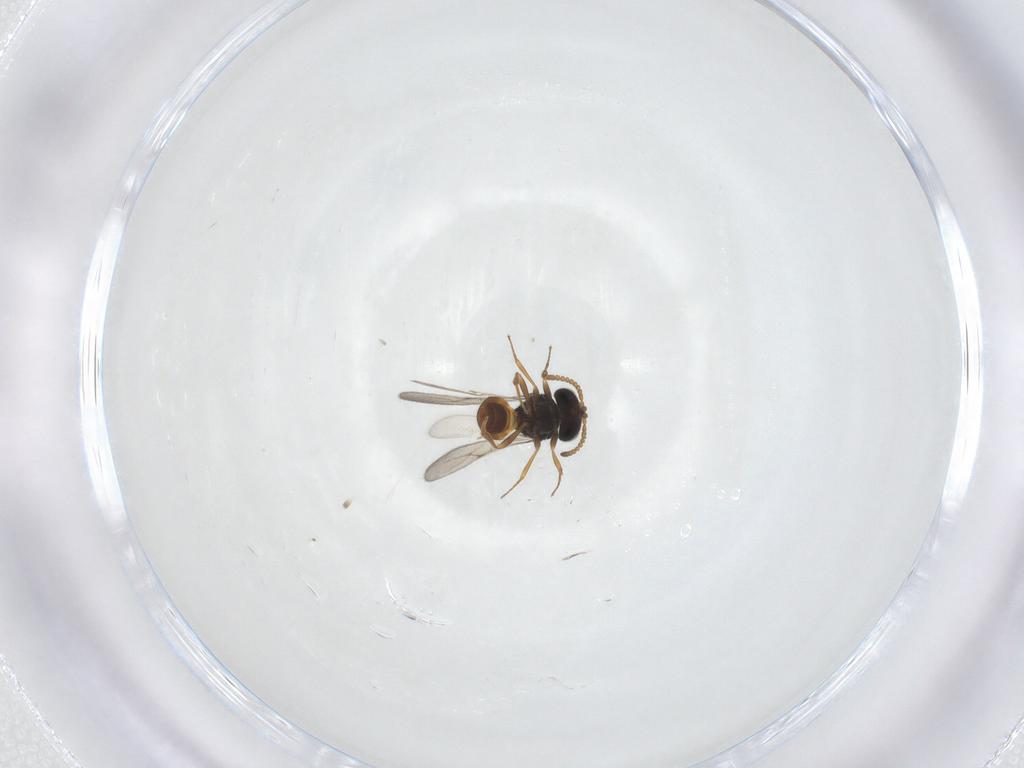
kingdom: Animalia
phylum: Arthropoda
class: Insecta
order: Hymenoptera
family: Scelionidae
